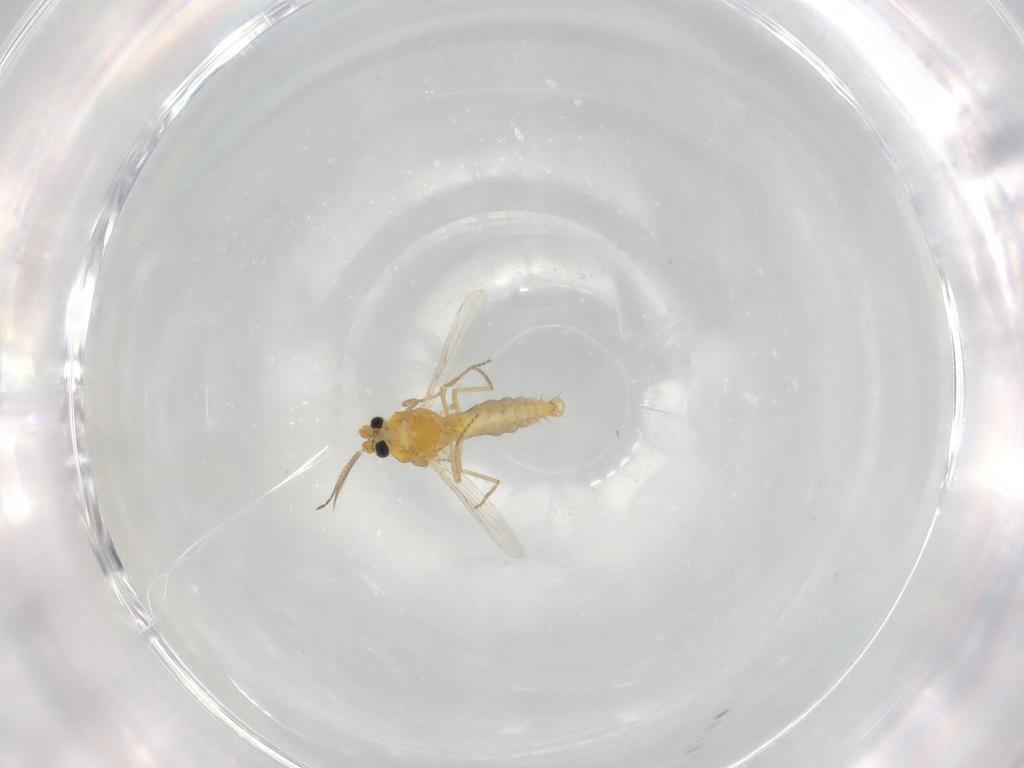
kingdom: Animalia
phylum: Arthropoda
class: Insecta
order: Diptera
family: Ceratopogonidae
